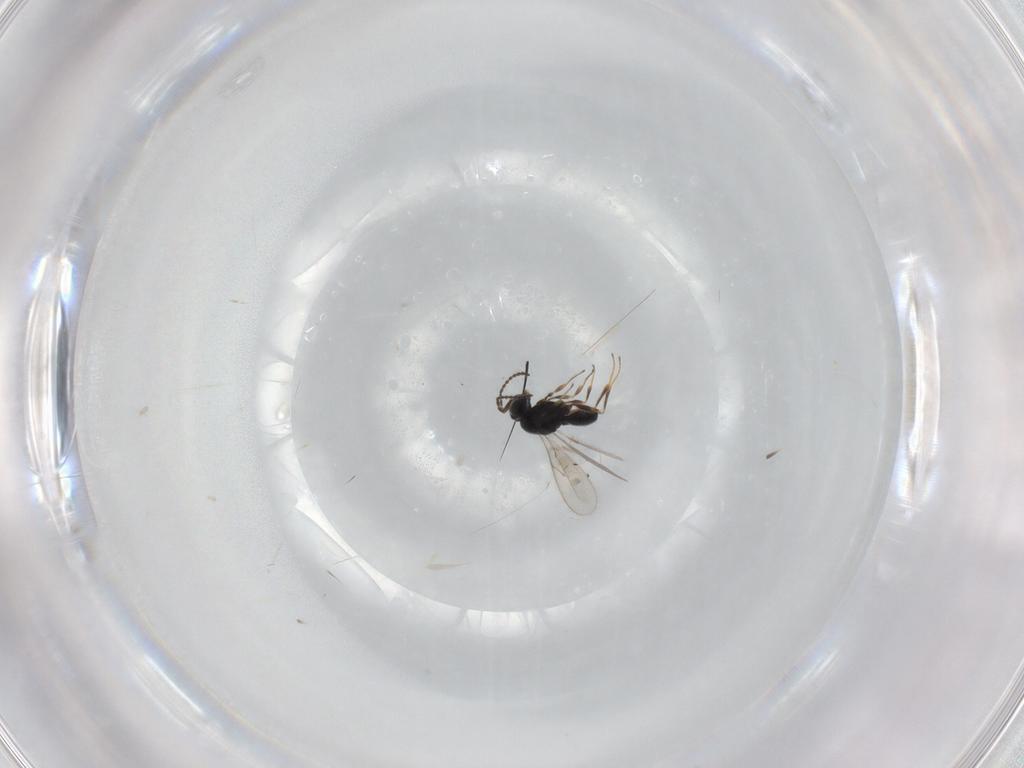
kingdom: Animalia
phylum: Arthropoda
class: Insecta
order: Hymenoptera
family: Scelionidae
